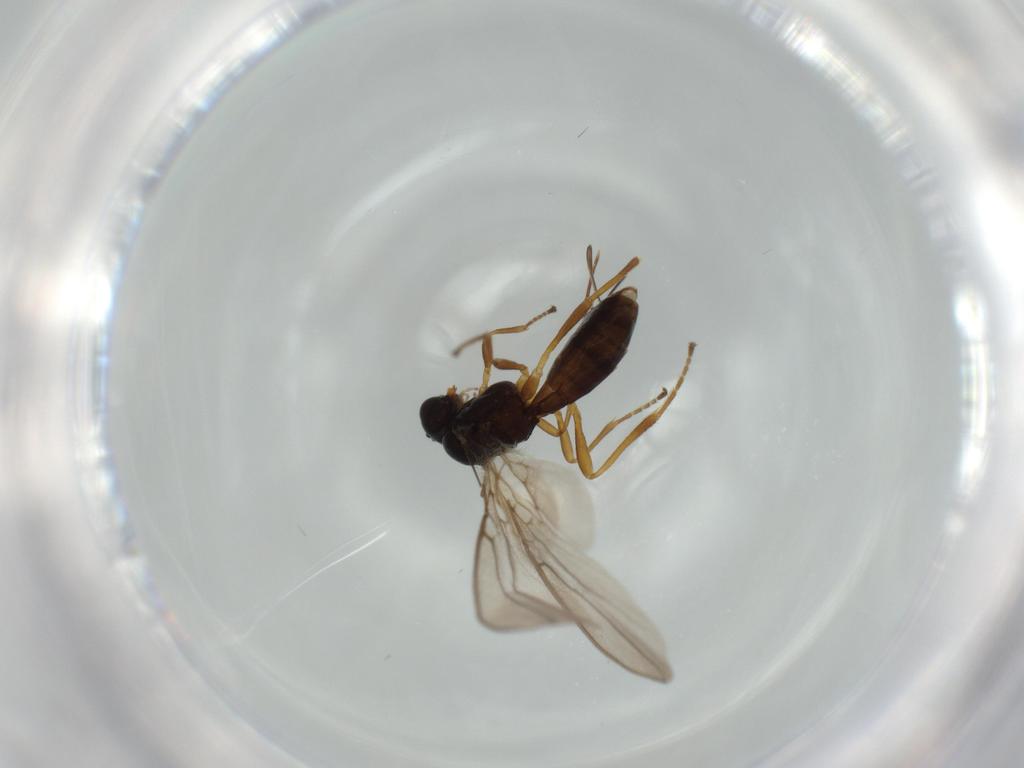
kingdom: Animalia
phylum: Arthropoda
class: Insecta
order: Hymenoptera
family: Braconidae
